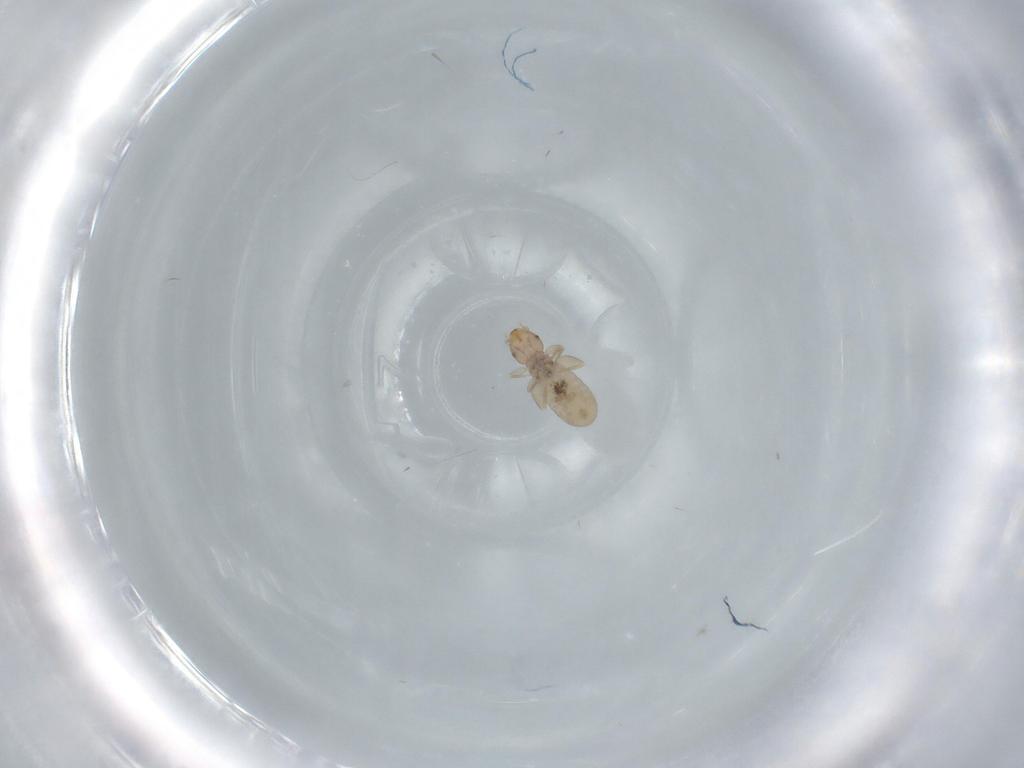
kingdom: Animalia
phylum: Arthropoda
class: Insecta
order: Psocodea
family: Liposcelididae
